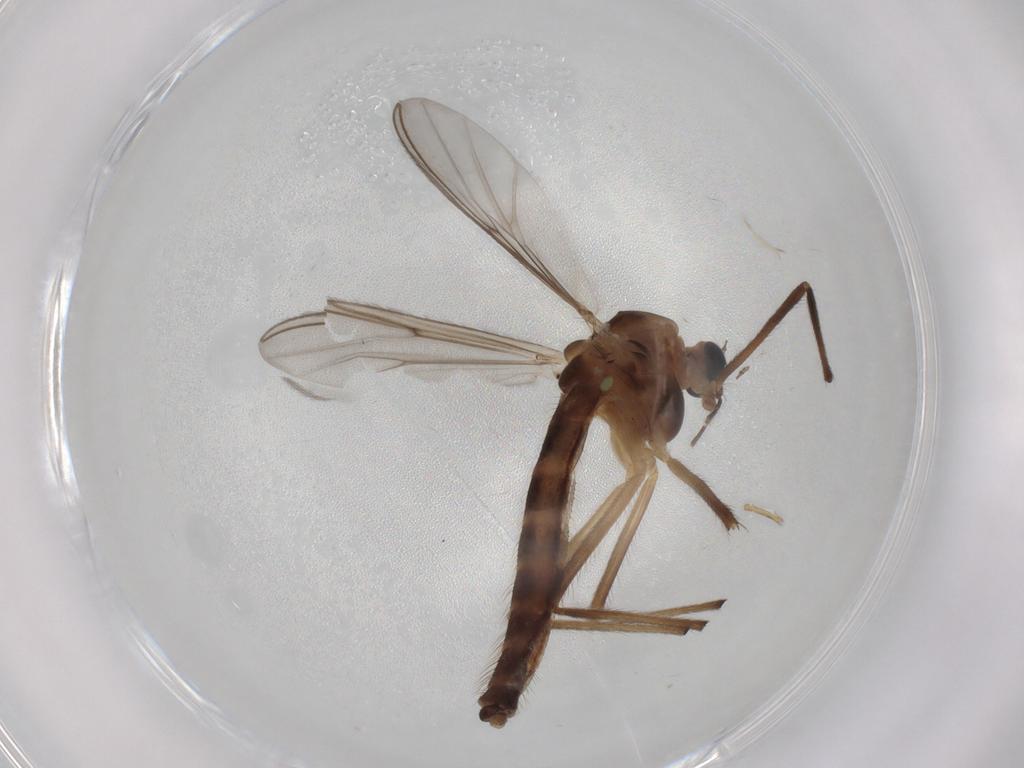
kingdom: Animalia
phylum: Arthropoda
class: Insecta
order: Diptera
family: Chironomidae
